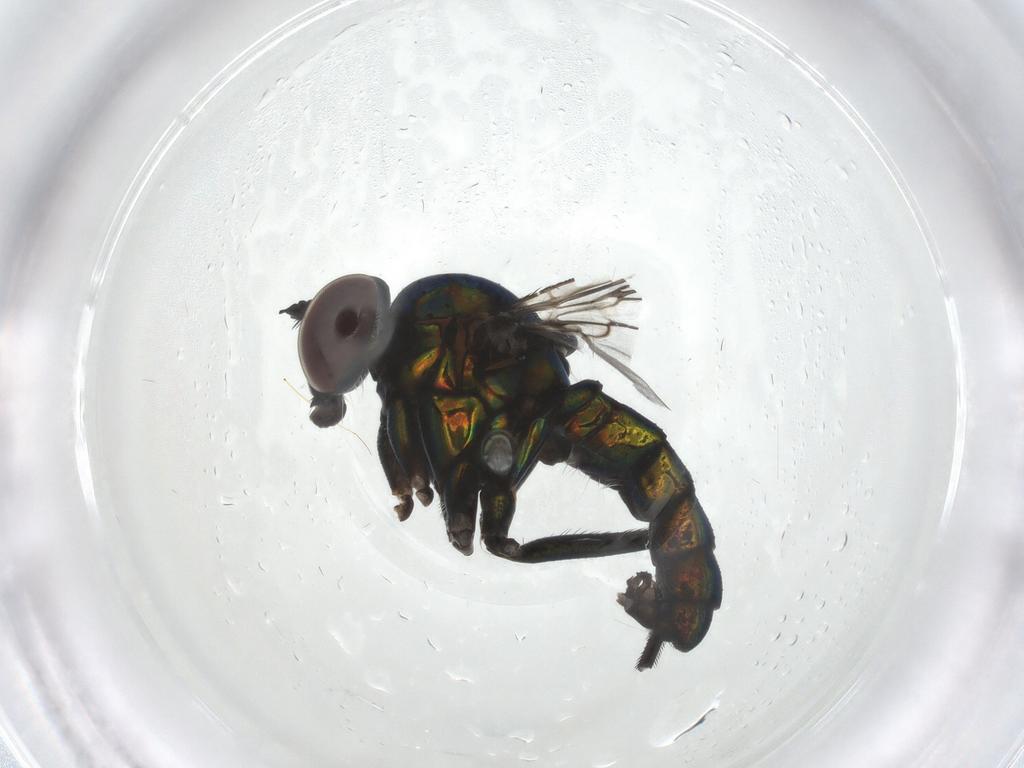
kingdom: Animalia
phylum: Arthropoda
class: Insecta
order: Diptera
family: Dolichopodidae
